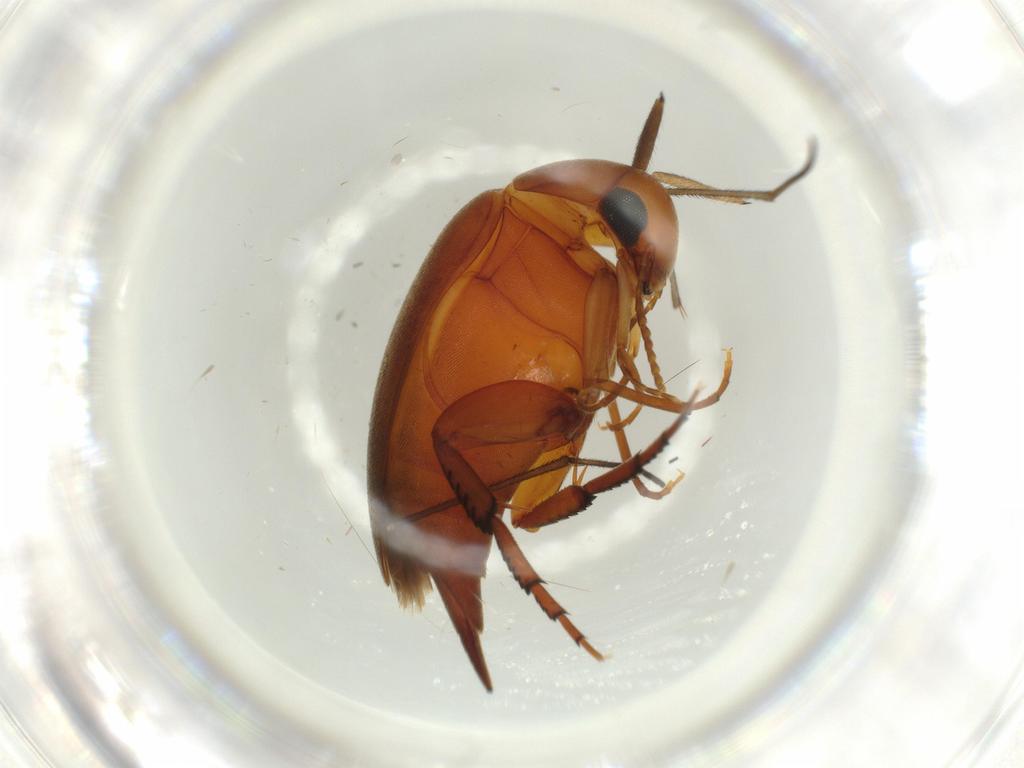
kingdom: Animalia
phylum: Arthropoda
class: Insecta
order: Coleoptera
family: Mordellidae
